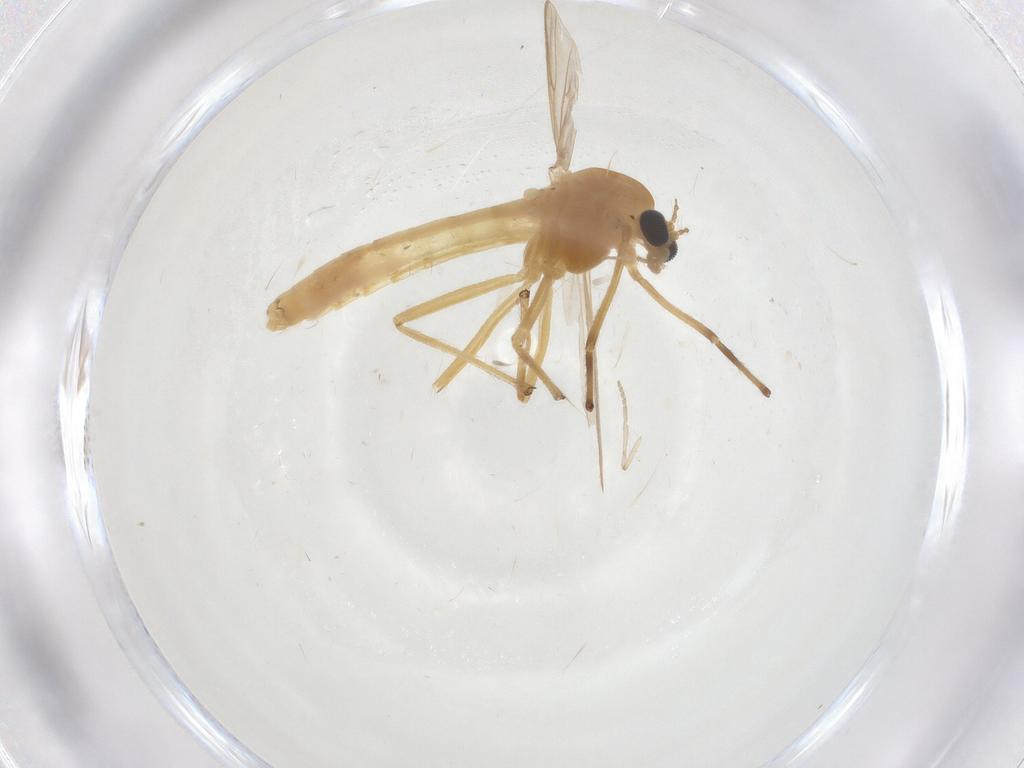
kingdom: Animalia
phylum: Arthropoda
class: Insecta
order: Diptera
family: Chironomidae
